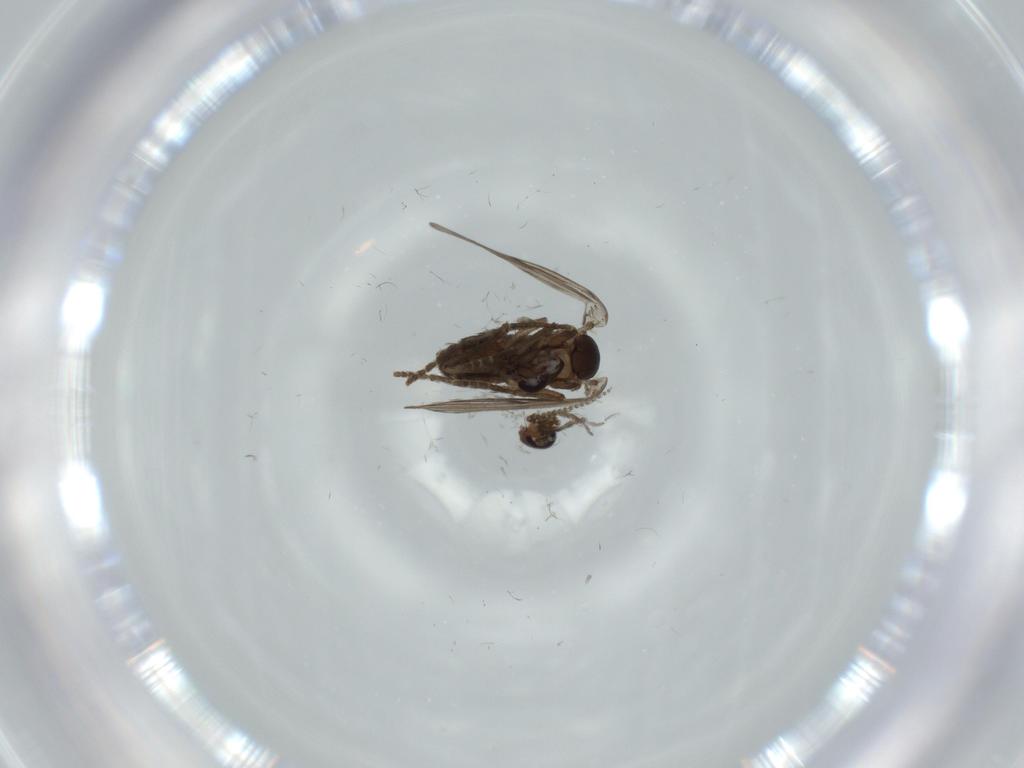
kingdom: Animalia
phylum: Arthropoda
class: Insecta
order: Diptera
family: Psychodidae
